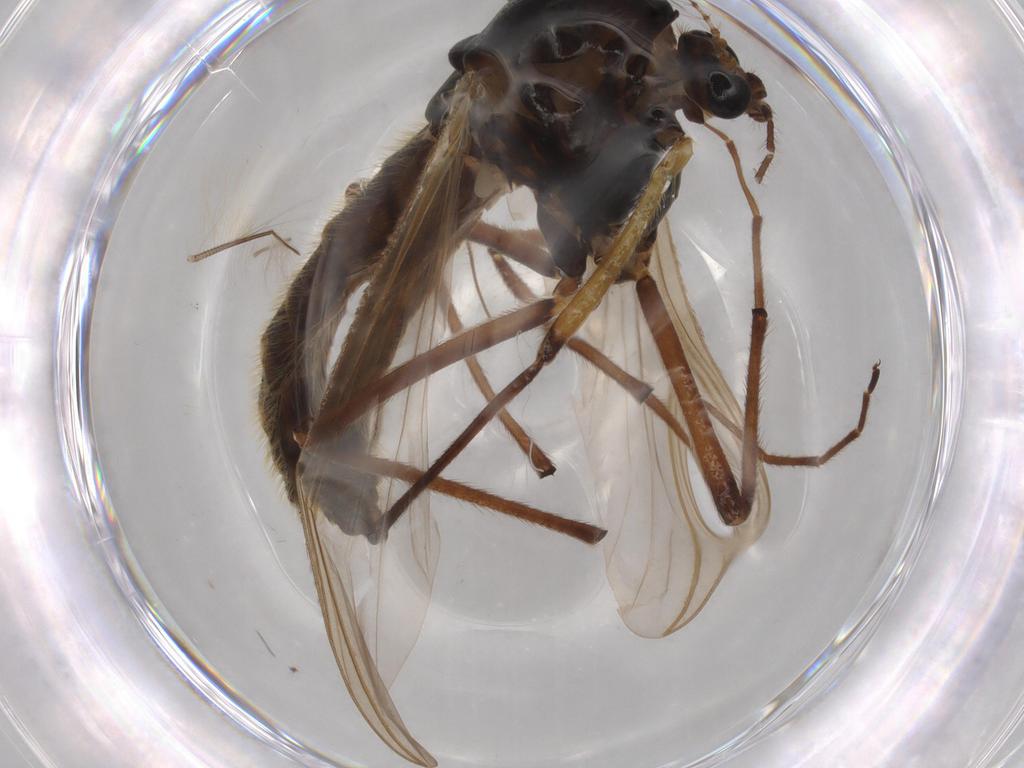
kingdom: Animalia
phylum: Arthropoda
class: Insecta
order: Diptera
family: Chironomidae
